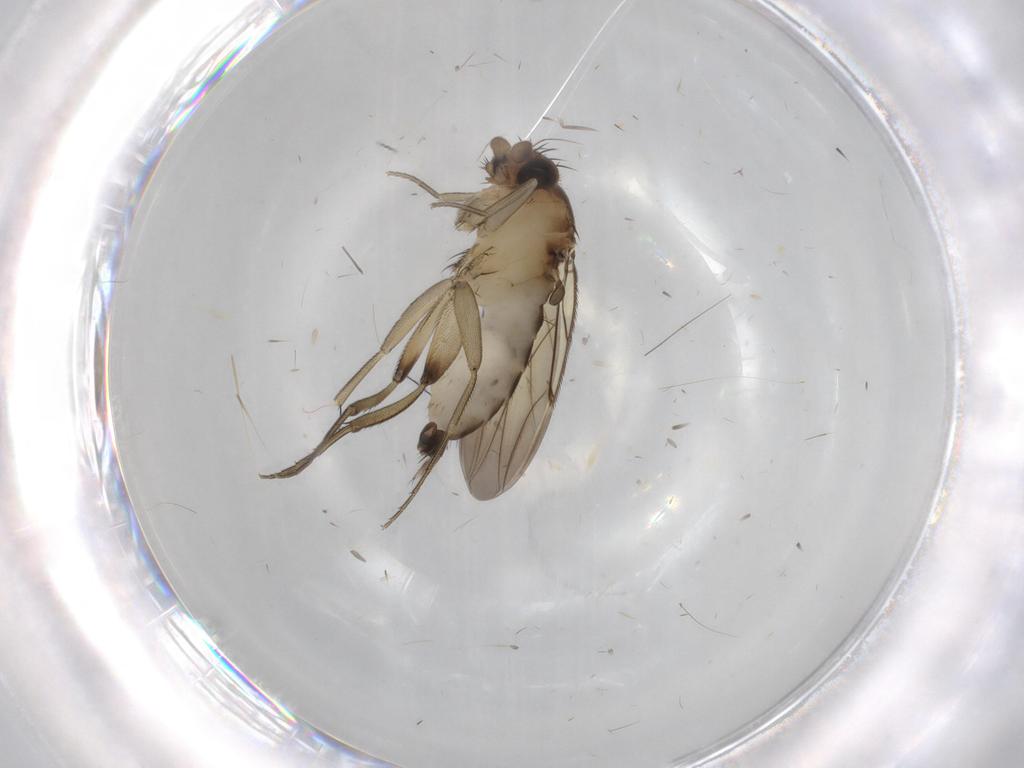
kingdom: Animalia
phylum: Arthropoda
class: Insecta
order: Diptera
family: Phoridae
